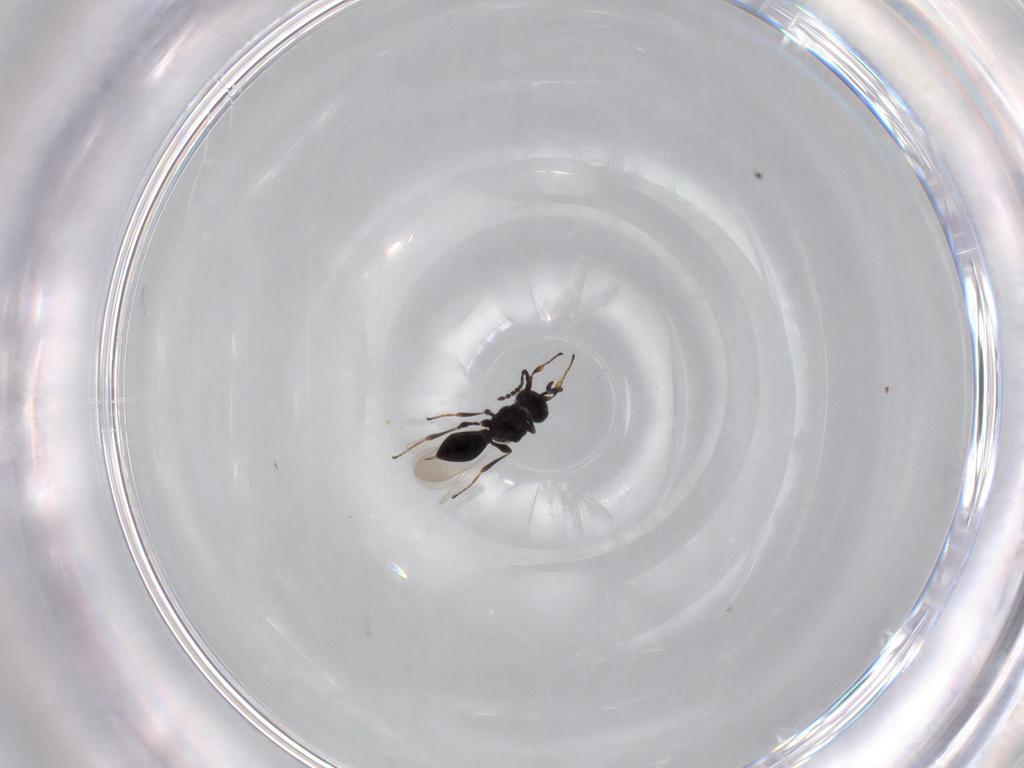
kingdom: Animalia
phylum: Arthropoda
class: Insecta
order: Hymenoptera
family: Platygastridae
